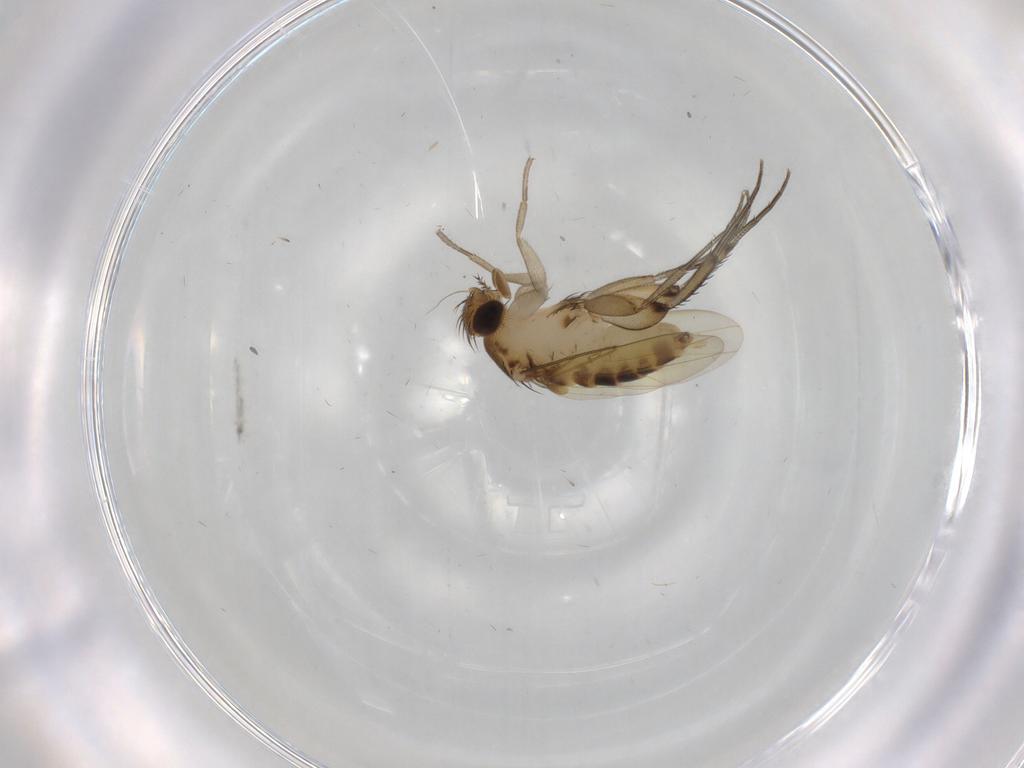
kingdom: Animalia
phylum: Arthropoda
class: Insecta
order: Diptera
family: Phoridae
